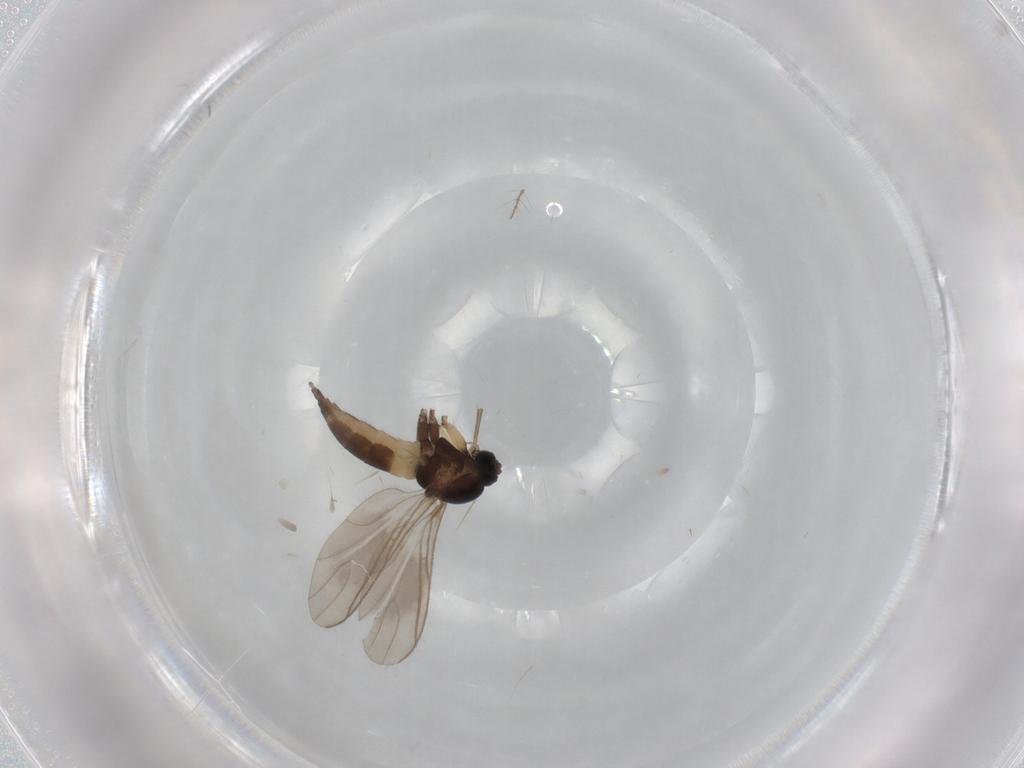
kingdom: Animalia
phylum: Arthropoda
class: Insecta
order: Diptera
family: Sciaridae
